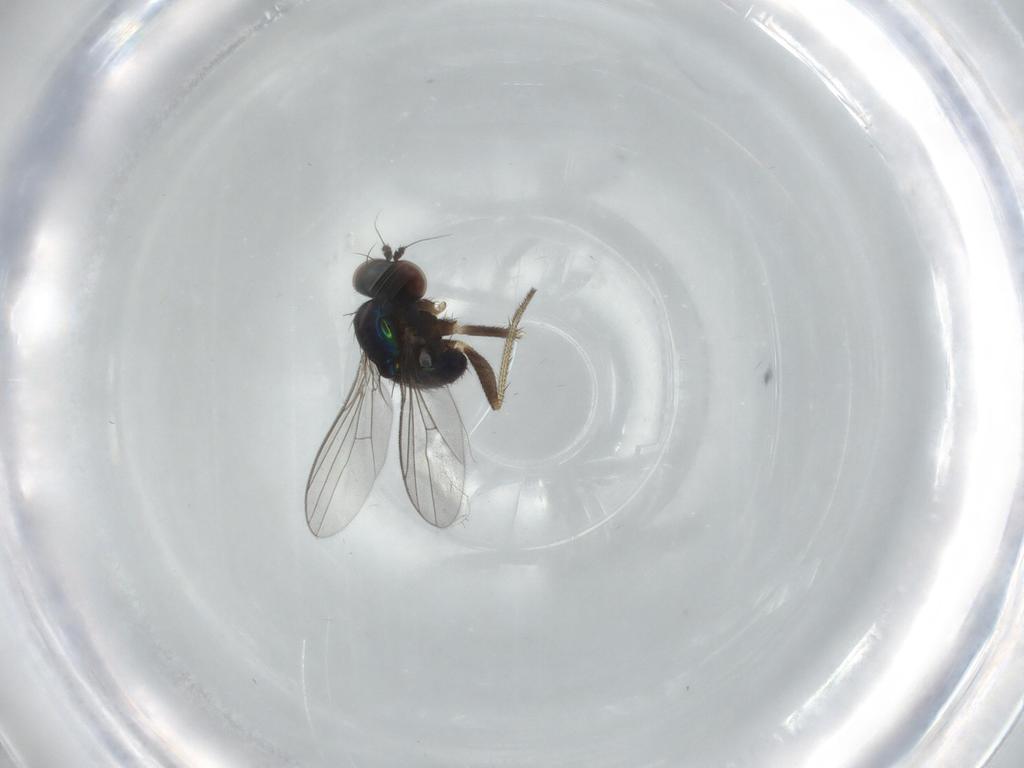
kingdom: Animalia
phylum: Arthropoda
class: Insecta
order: Diptera
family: Dolichopodidae
